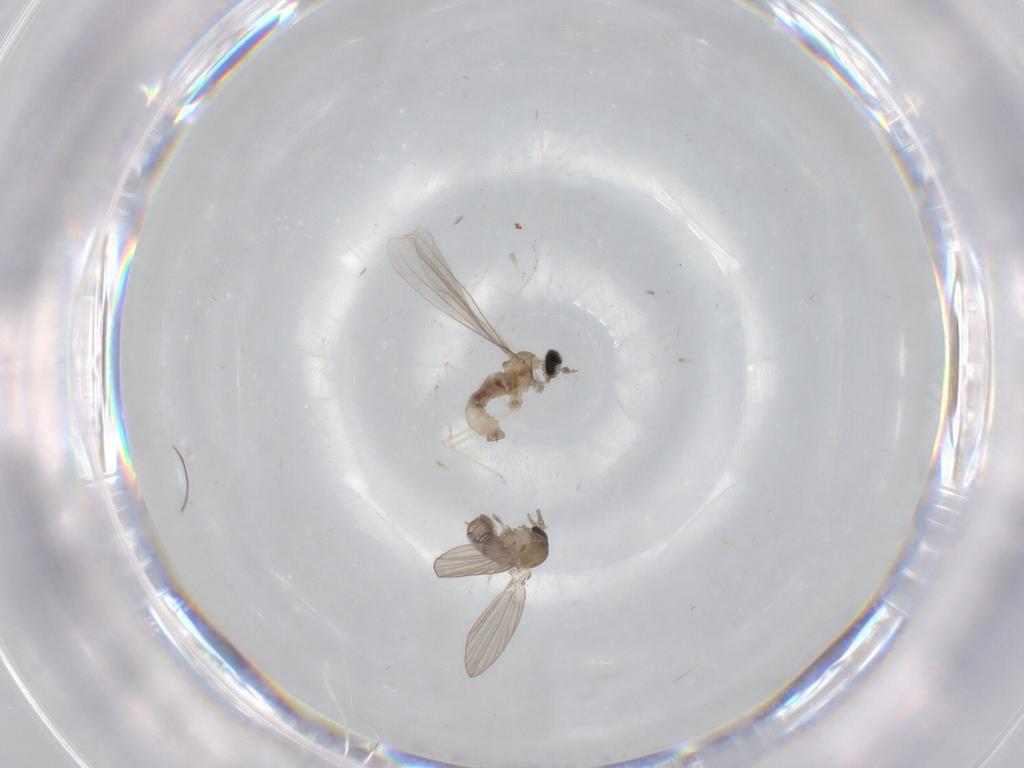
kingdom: Animalia
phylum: Arthropoda
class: Insecta
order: Diptera
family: Psychodidae
